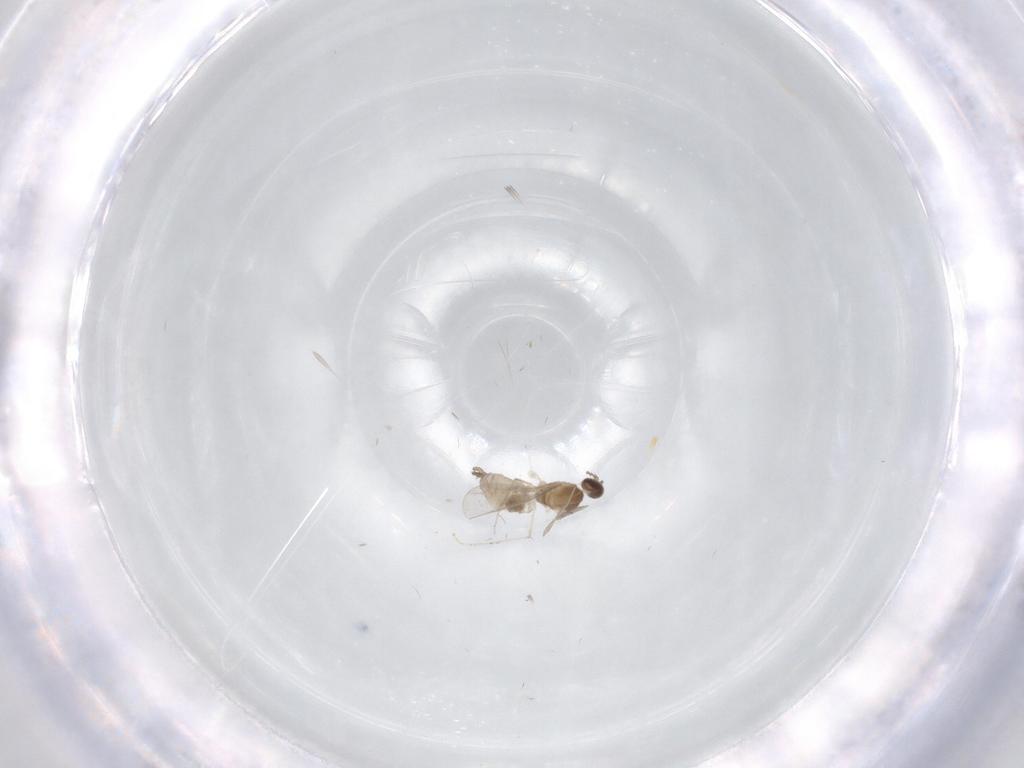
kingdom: Animalia
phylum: Arthropoda
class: Insecta
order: Diptera
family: Cecidomyiidae
